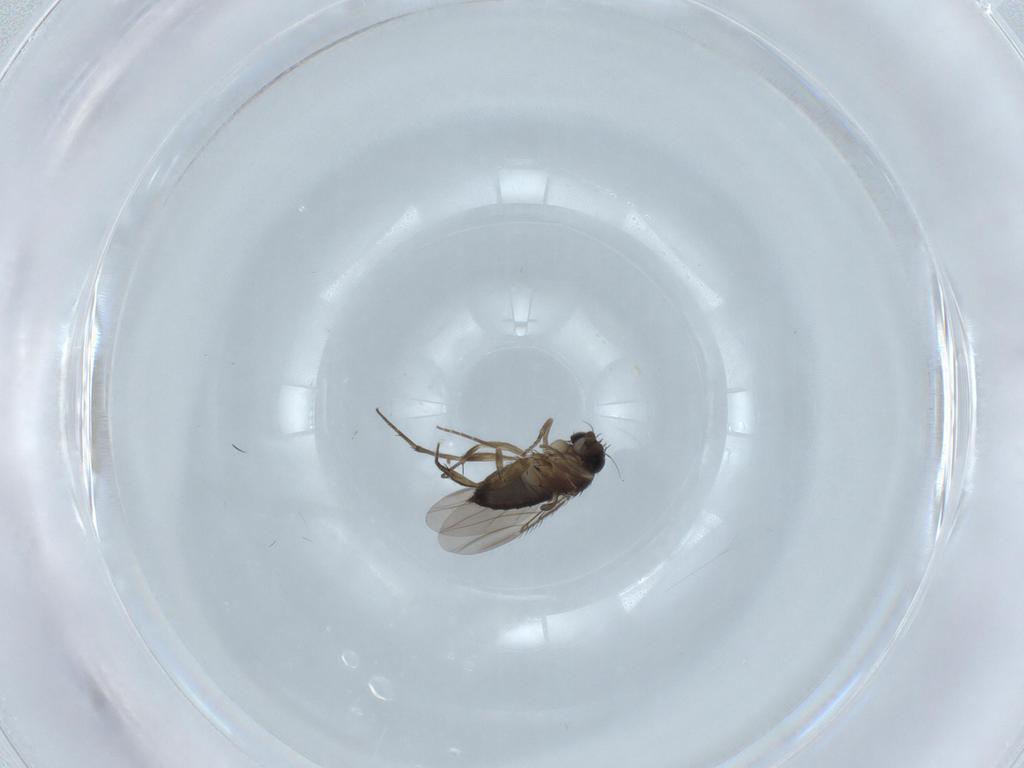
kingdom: Animalia
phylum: Arthropoda
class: Insecta
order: Diptera
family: Phoridae
